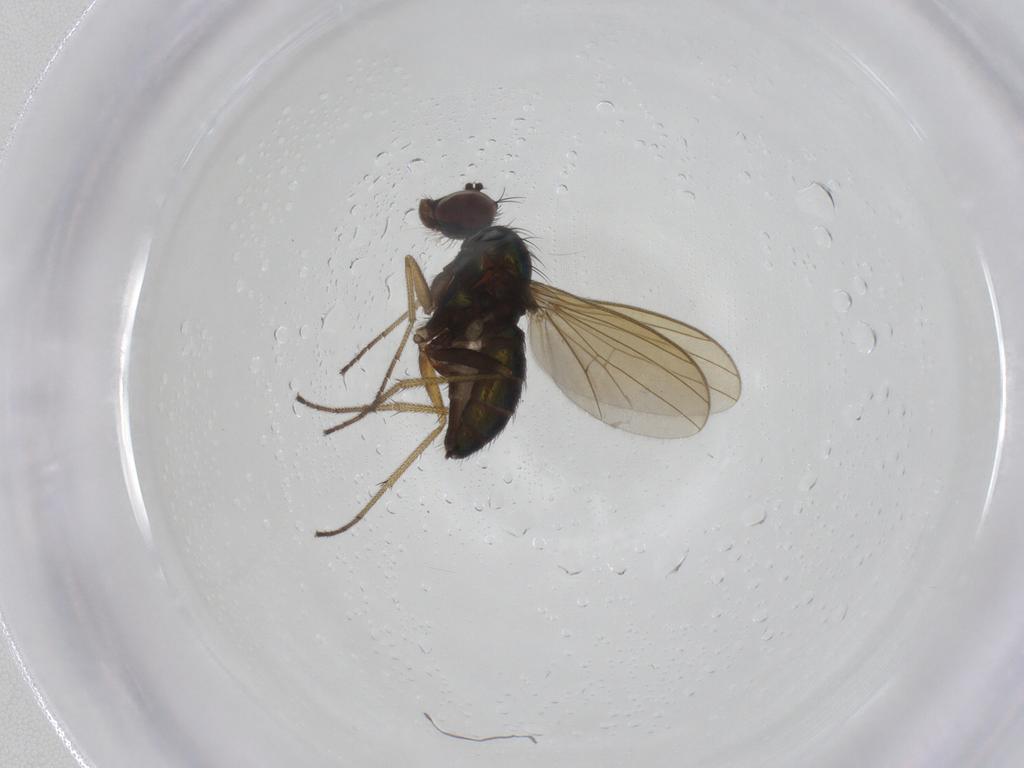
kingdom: Animalia
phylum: Arthropoda
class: Insecta
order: Diptera
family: Dolichopodidae
